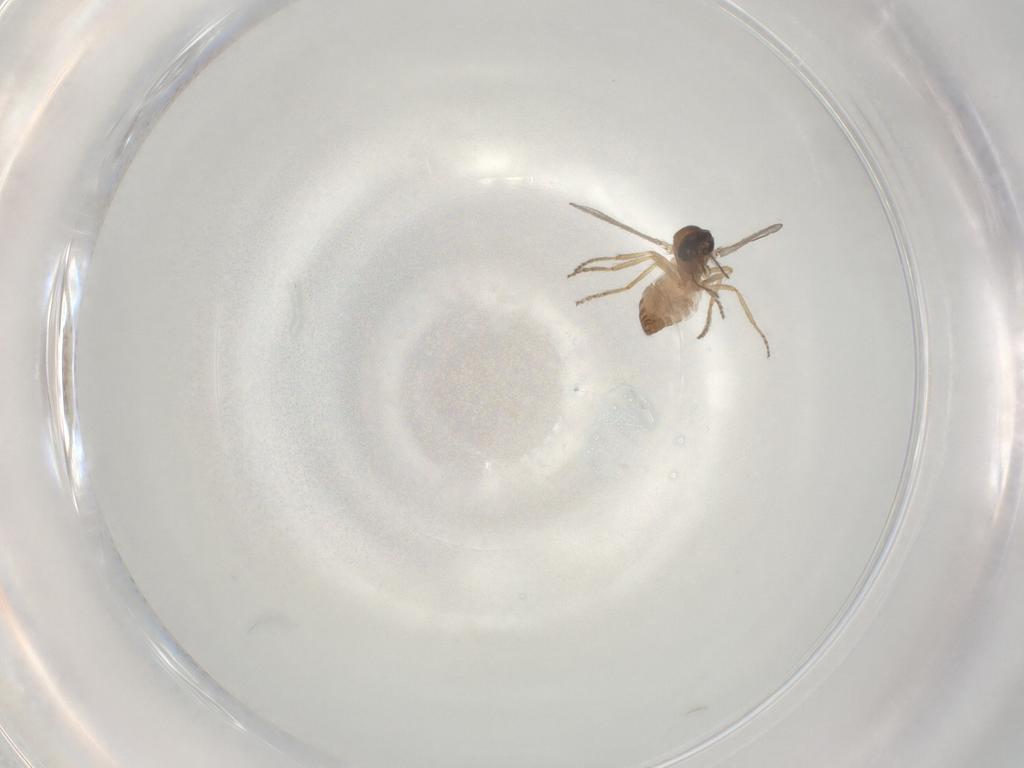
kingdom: Animalia
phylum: Arthropoda
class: Insecta
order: Diptera
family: Ceratopogonidae
